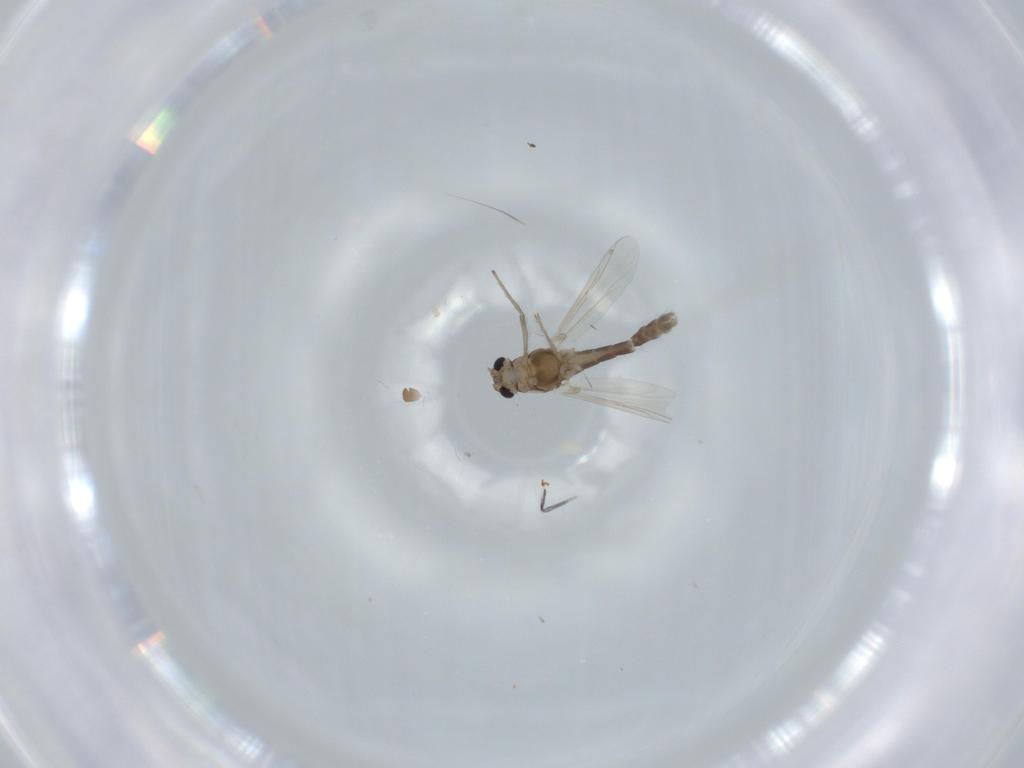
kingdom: Animalia
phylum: Arthropoda
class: Insecta
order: Diptera
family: Chironomidae
